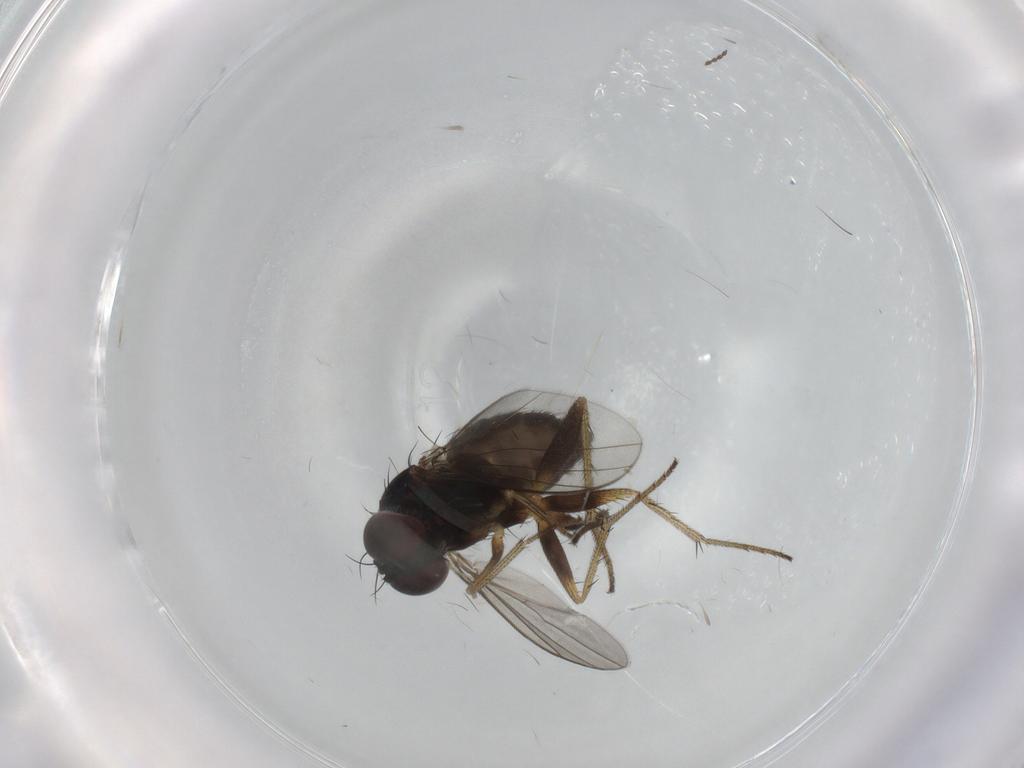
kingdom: Animalia
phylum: Arthropoda
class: Insecta
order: Diptera
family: Cecidomyiidae
